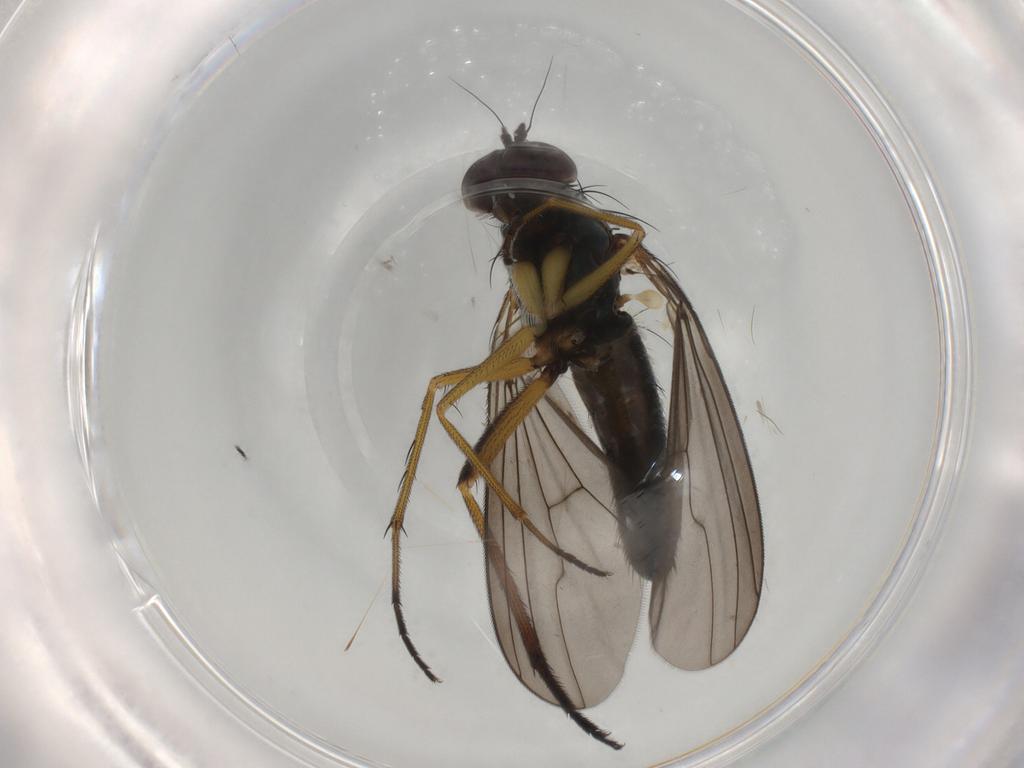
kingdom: Animalia
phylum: Arthropoda
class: Insecta
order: Diptera
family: Dolichopodidae
